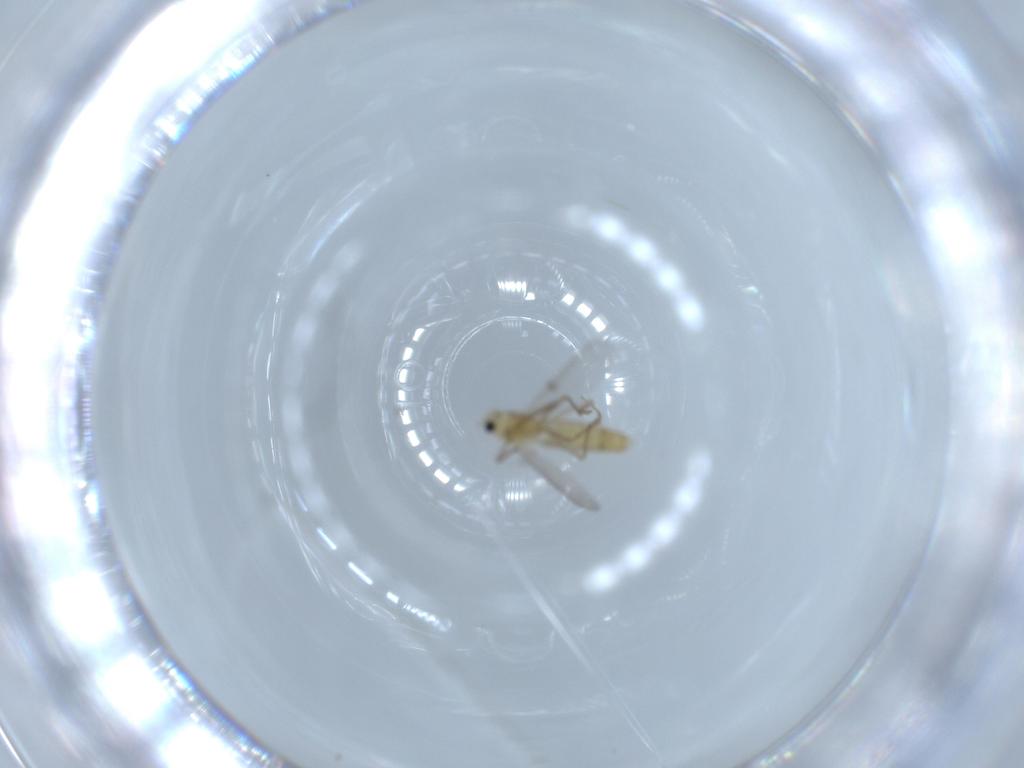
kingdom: Animalia
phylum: Arthropoda
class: Insecta
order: Diptera
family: Chironomidae
